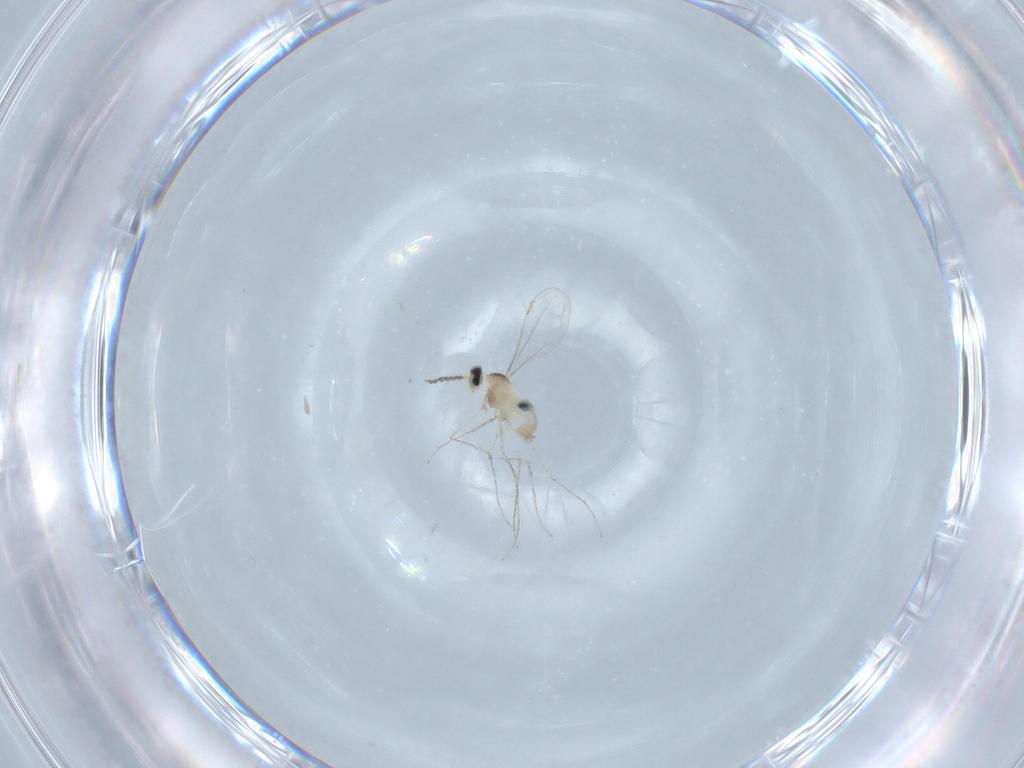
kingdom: Animalia
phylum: Arthropoda
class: Insecta
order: Diptera
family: Cecidomyiidae
